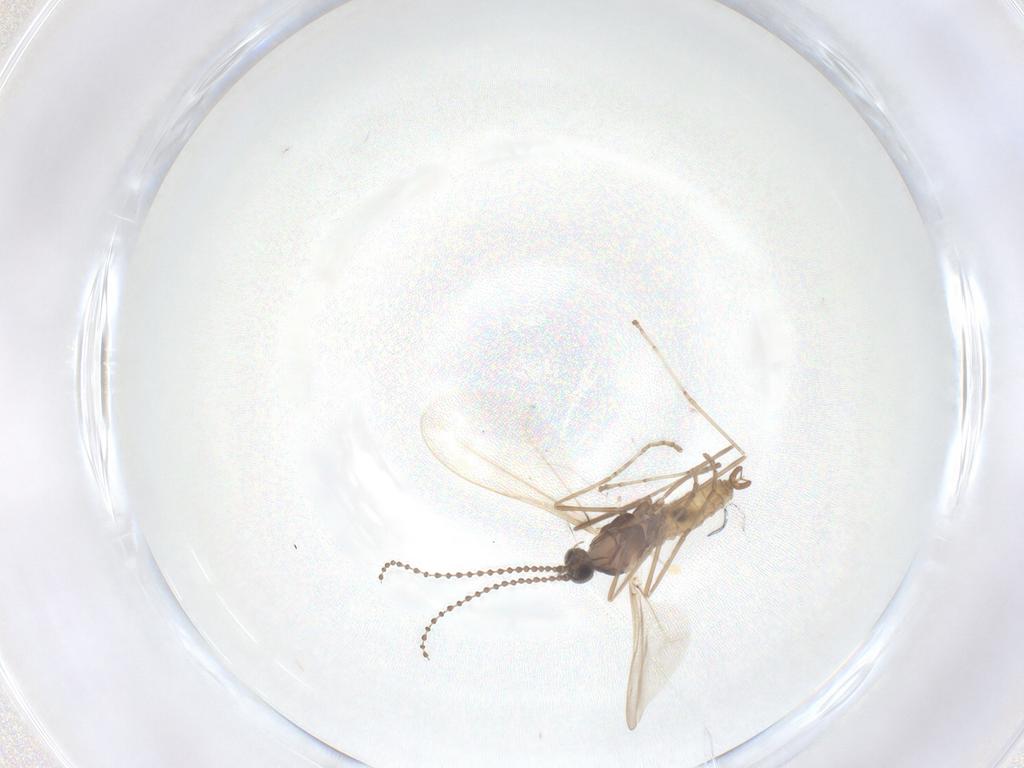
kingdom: Animalia
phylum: Arthropoda
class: Insecta
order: Diptera
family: Cecidomyiidae
